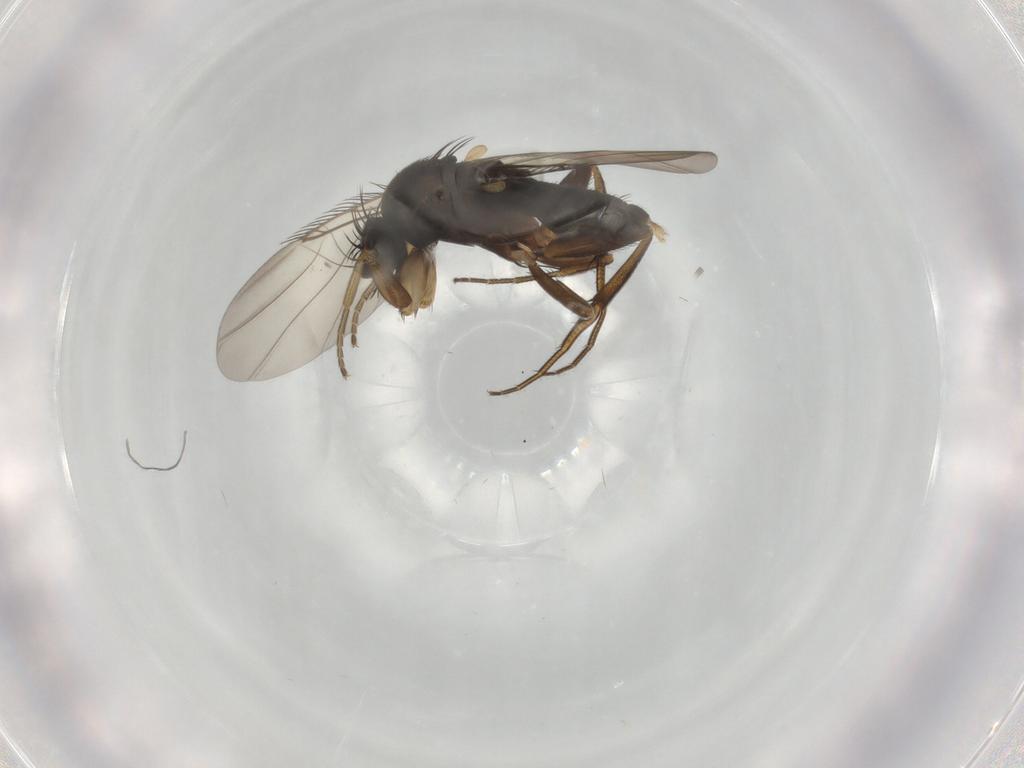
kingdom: Animalia
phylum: Arthropoda
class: Insecta
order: Diptera
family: Phoridae
